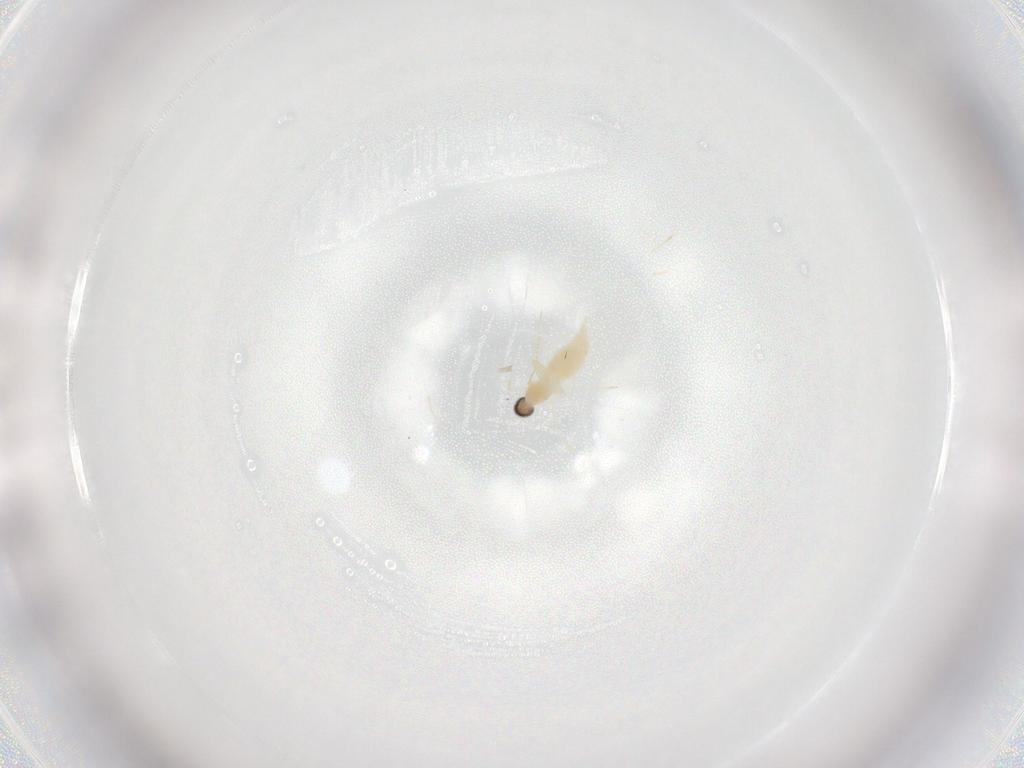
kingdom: Animalia
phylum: Arthropoda
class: Insecta
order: Diptera
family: Cecidomyiidae
